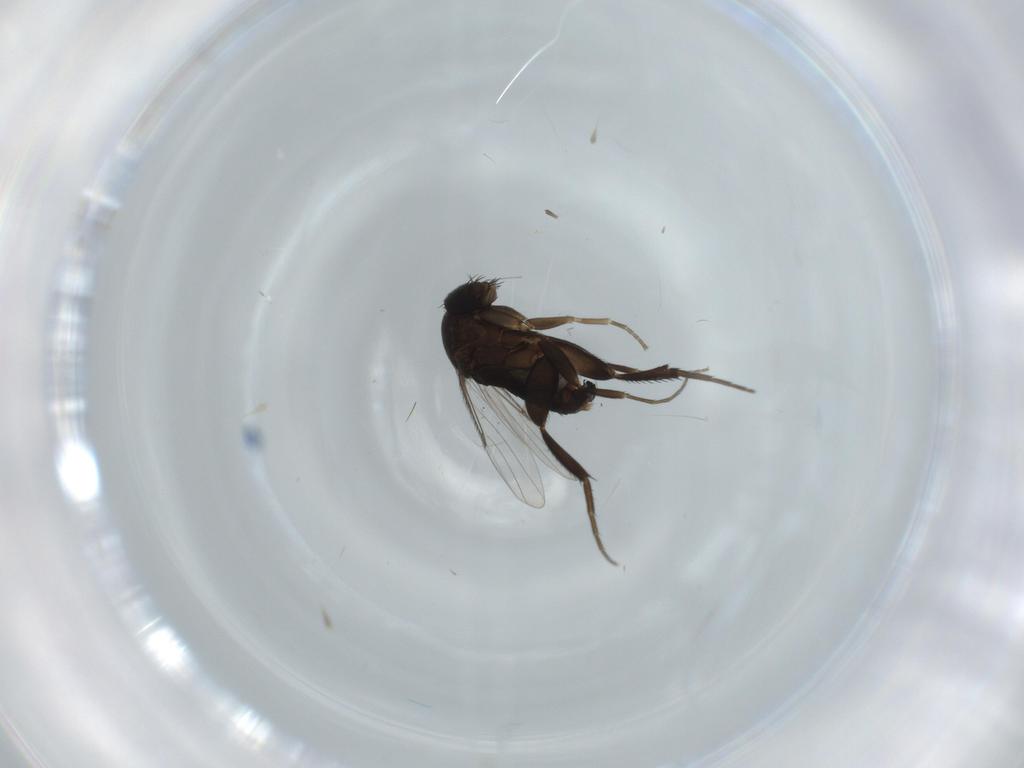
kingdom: Animalia
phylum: Arthropoda
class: Insecta
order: Diptera
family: Phoridae
